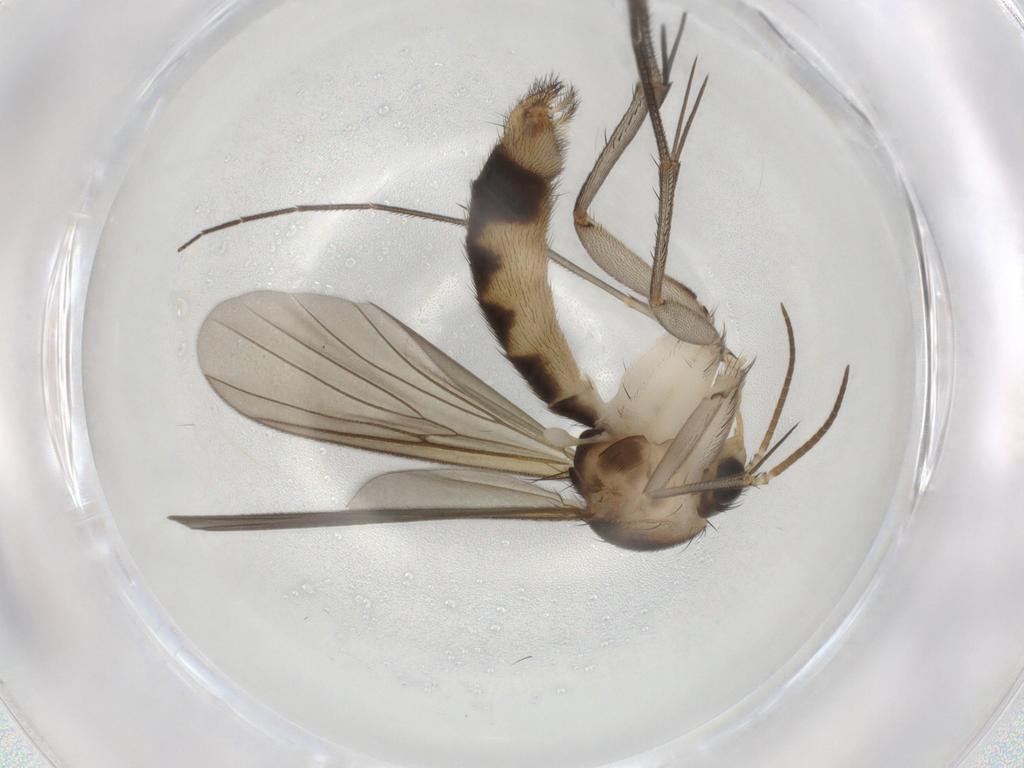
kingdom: Animalia
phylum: Arthropoda
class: Insecta
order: Diptera
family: Mycetophilidae
